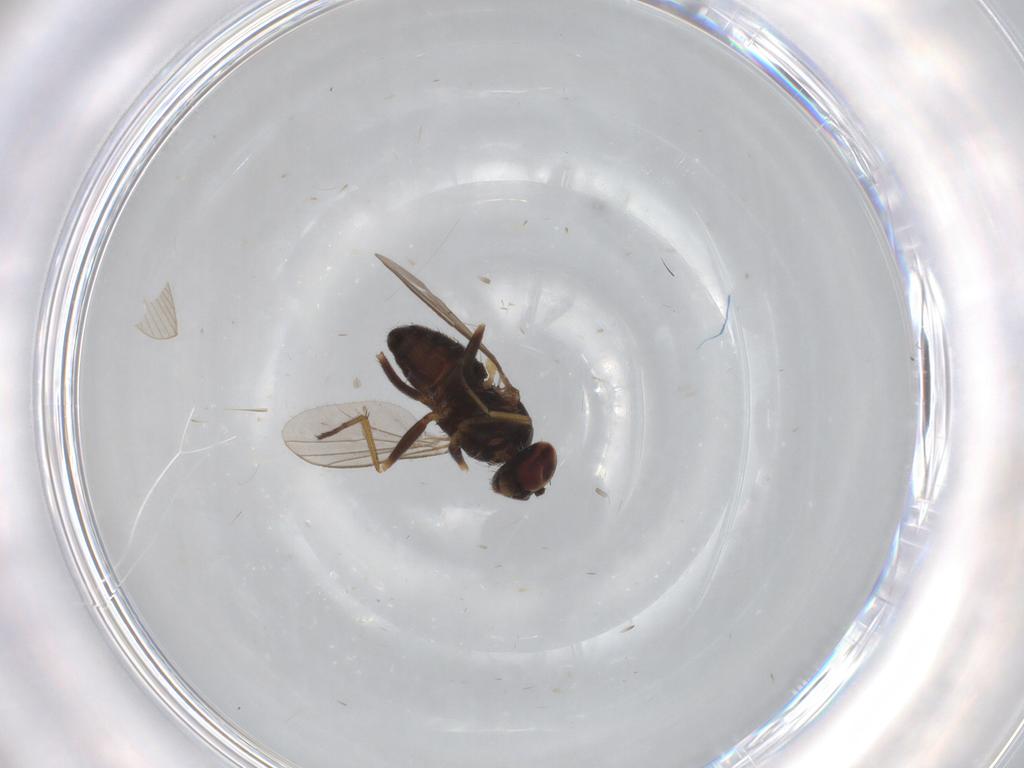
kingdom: Animalia
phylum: Arthropoda
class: Insecta
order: Diptera
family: Dolichopodidae
